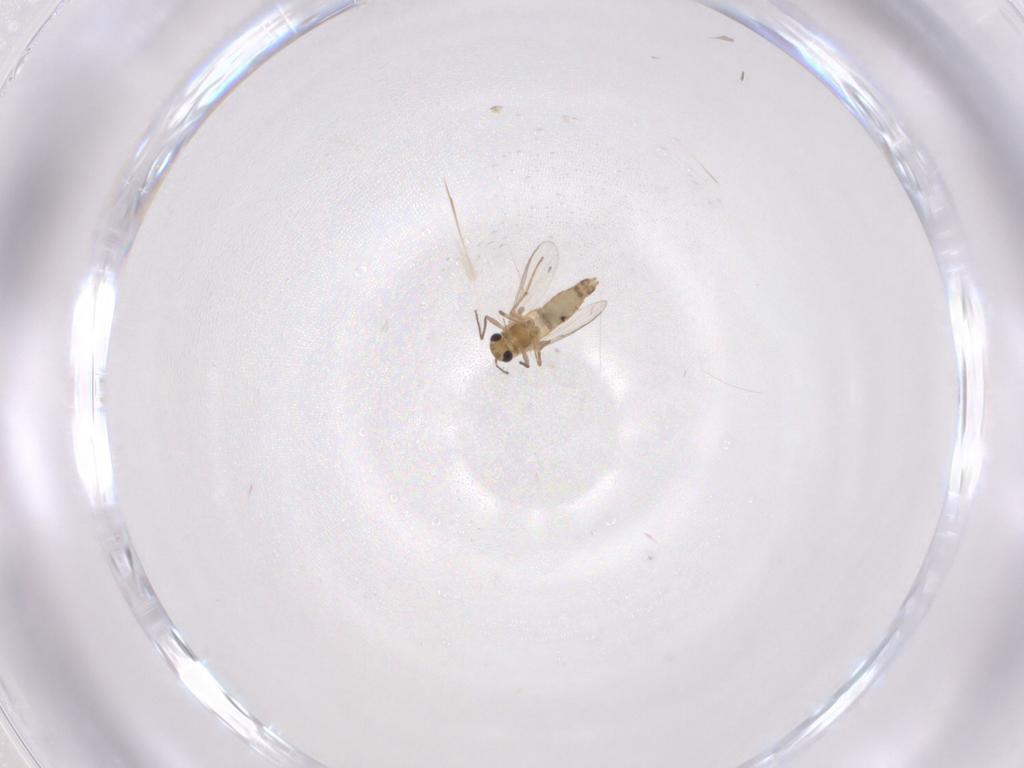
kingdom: Animalia
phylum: Arthropoda
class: Insecta
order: Diptera
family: Chironomidae
